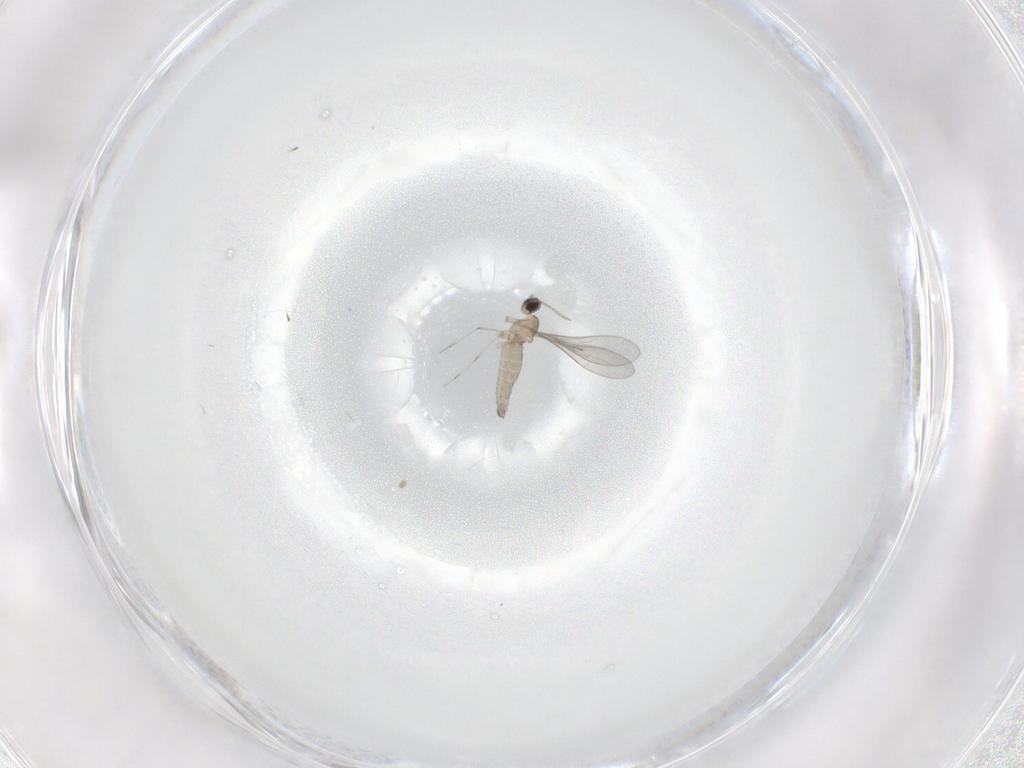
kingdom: Animalia
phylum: Arthropoda
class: Insecta
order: Diptera
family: Cecidomyiidae
